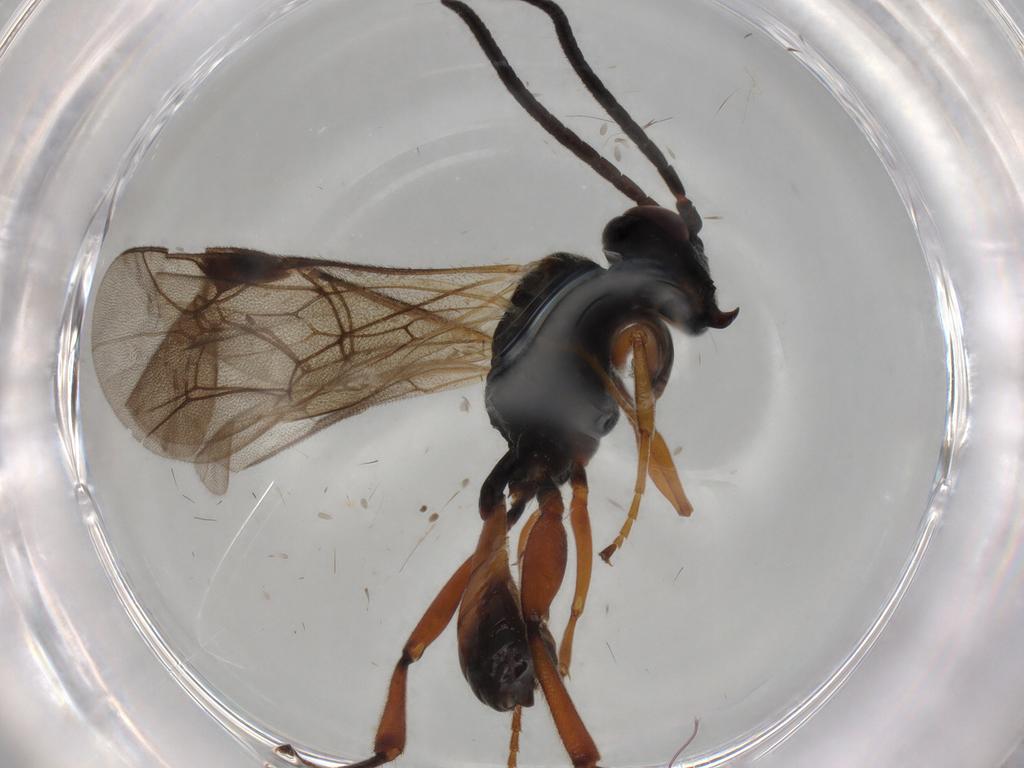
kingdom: Animalia
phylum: Arthropoda
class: Insecta
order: Hymenoptera
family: Ichneumonidae
